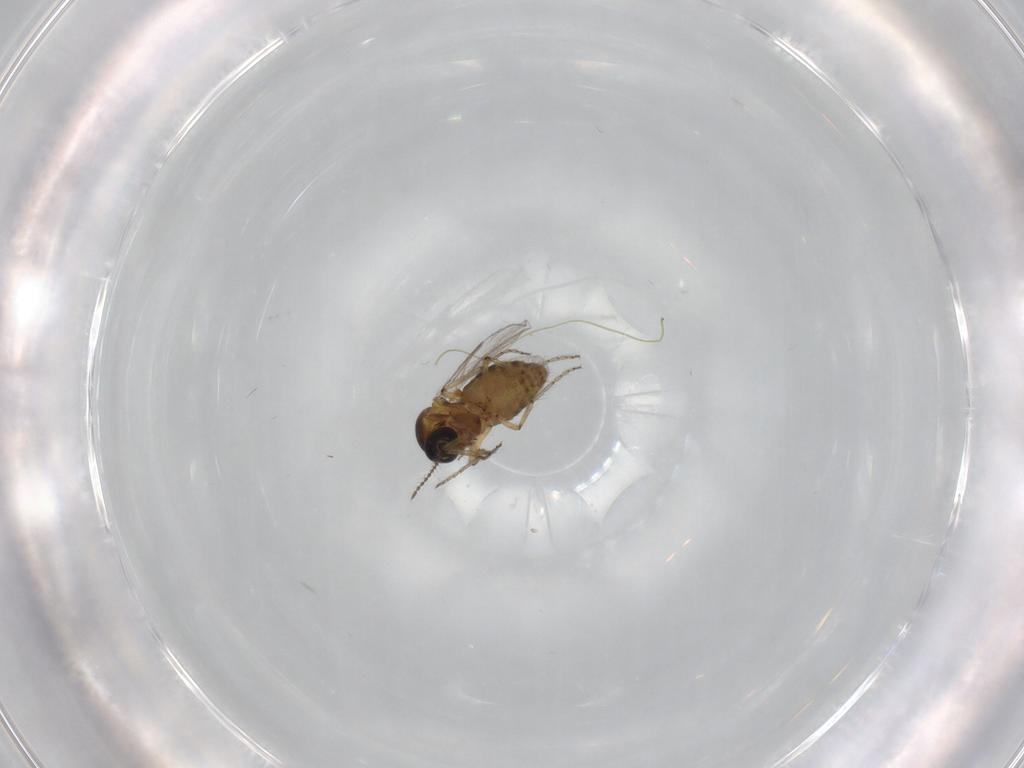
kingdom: Animalia
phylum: Arthropoda
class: Insecta
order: Diptera
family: Ceratopogonidae
